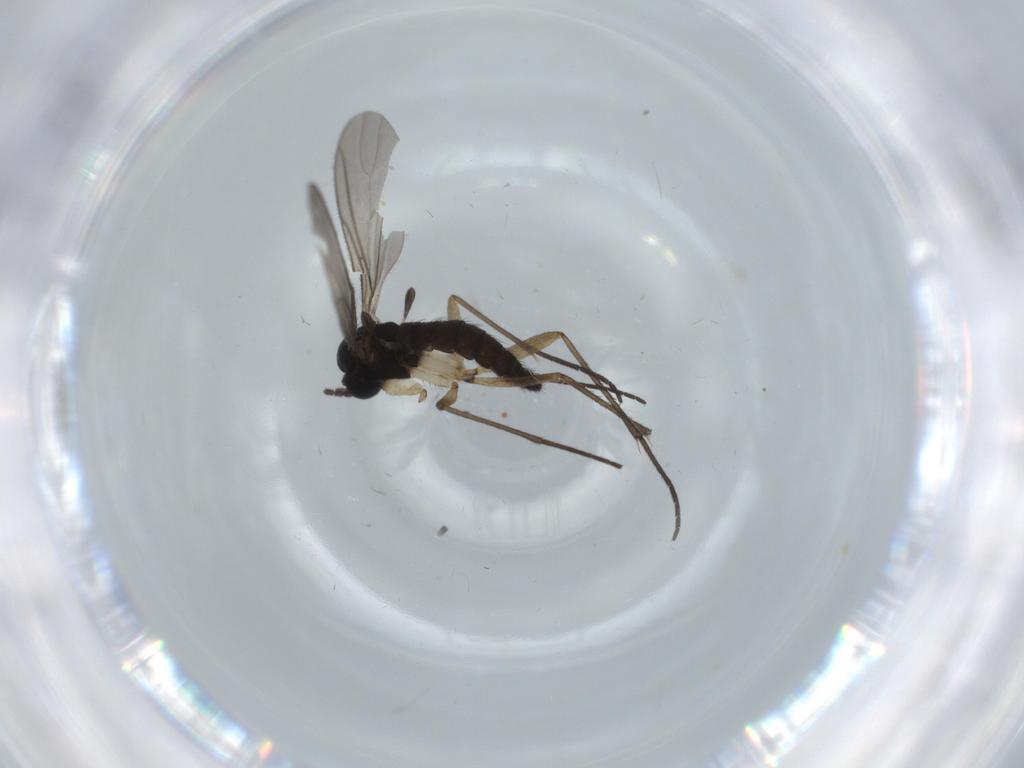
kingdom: Animalia
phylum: Arthropoda
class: Insecta
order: Diptera
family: Sciaridae
